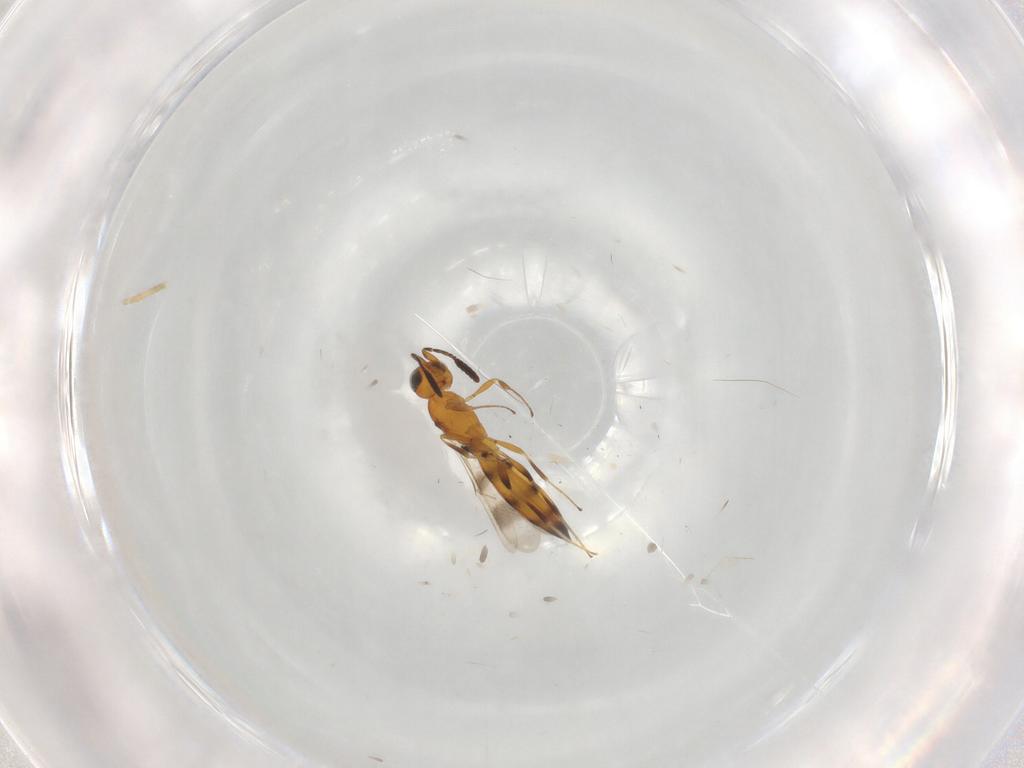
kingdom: Animalia
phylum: Arthropoda
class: Insecta
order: Hymenoptera
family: Scelionidae
